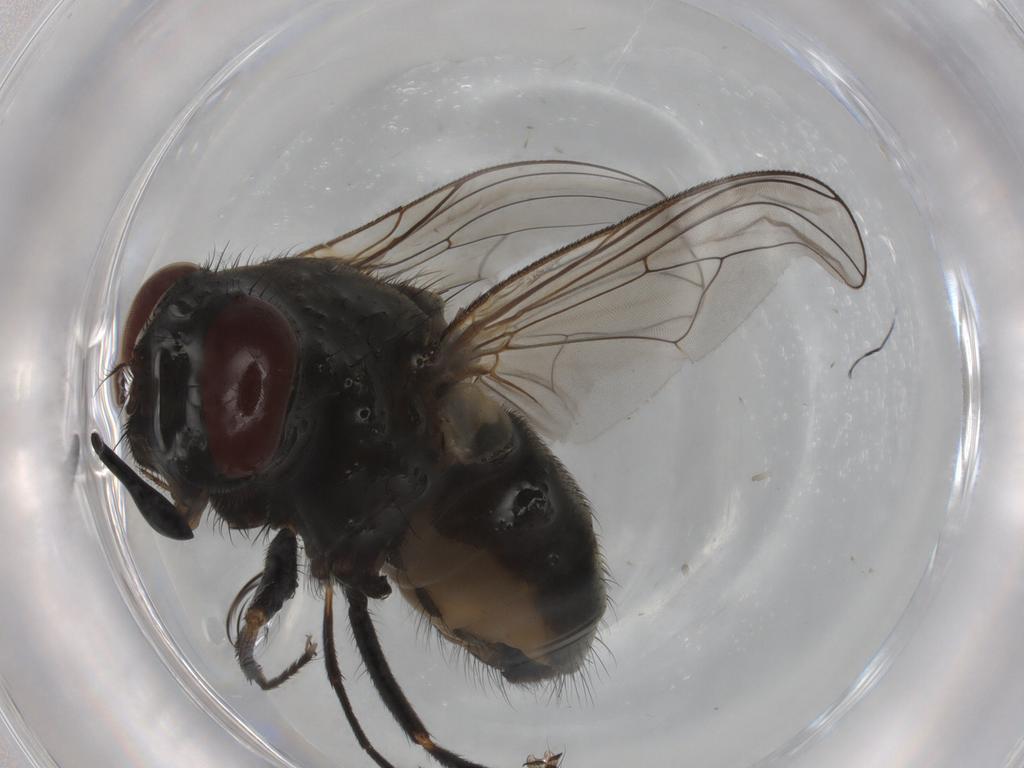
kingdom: Animalia
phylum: Arthropoda
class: Insecta
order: Diptera
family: Muscidae
